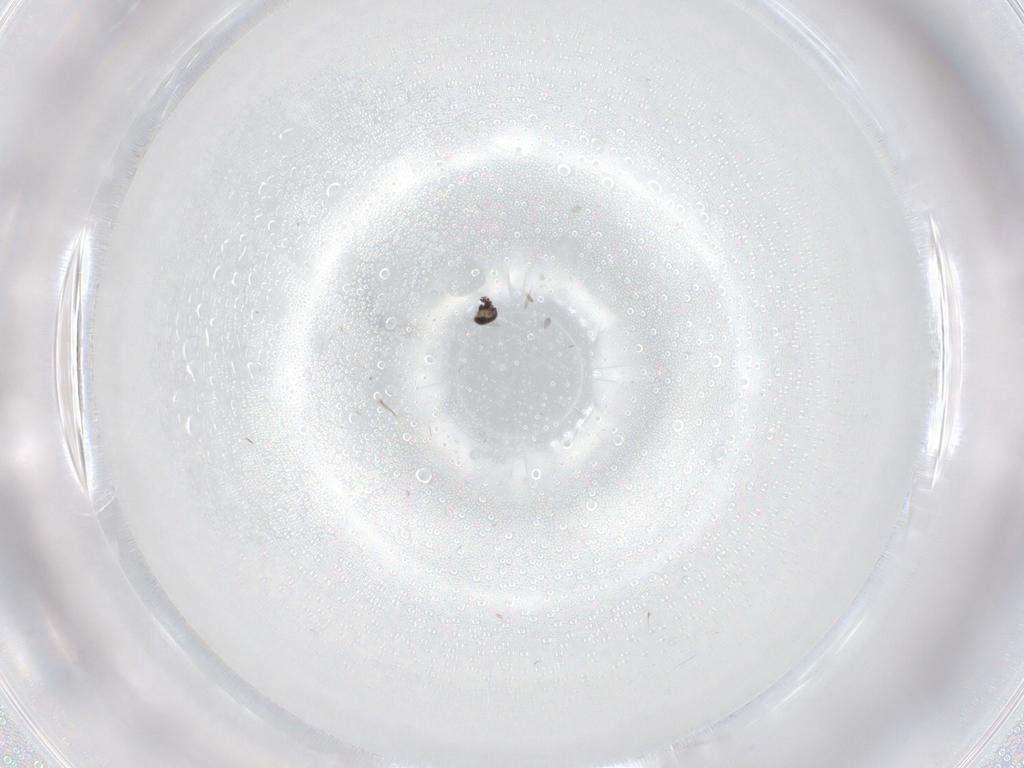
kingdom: Animalia
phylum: Arthropoda
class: Insecta
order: Diptera
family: Cecidomyiidae
